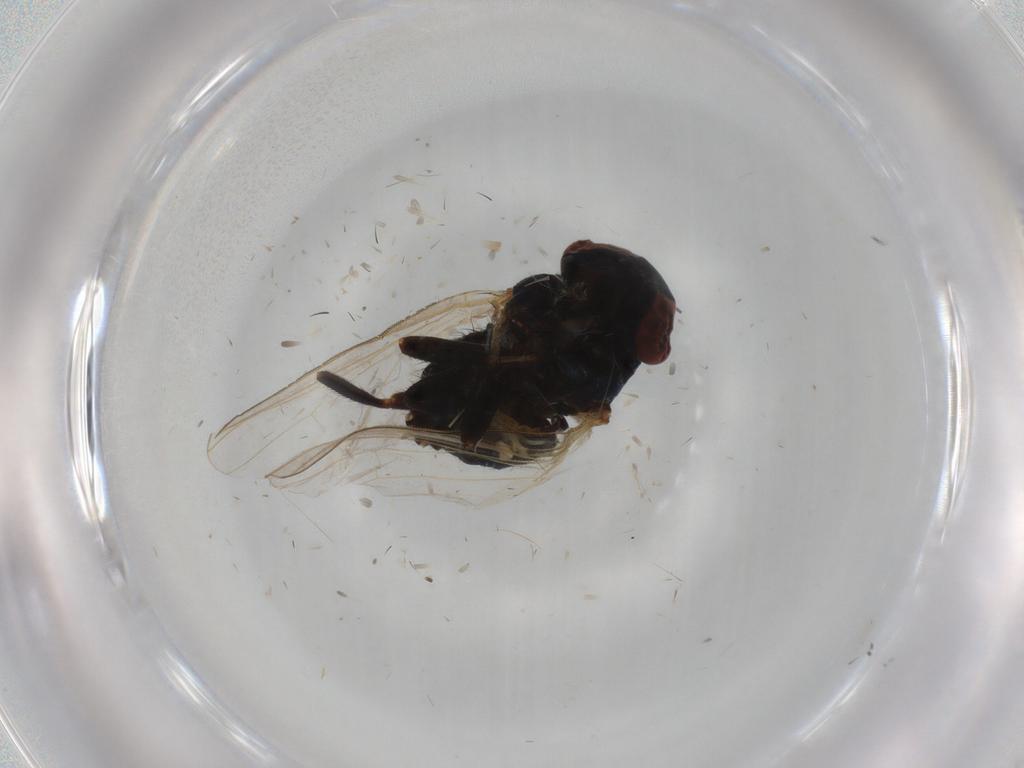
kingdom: Animalia
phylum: Arthropoda
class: Insecta
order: Diptera
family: Glossinidae
